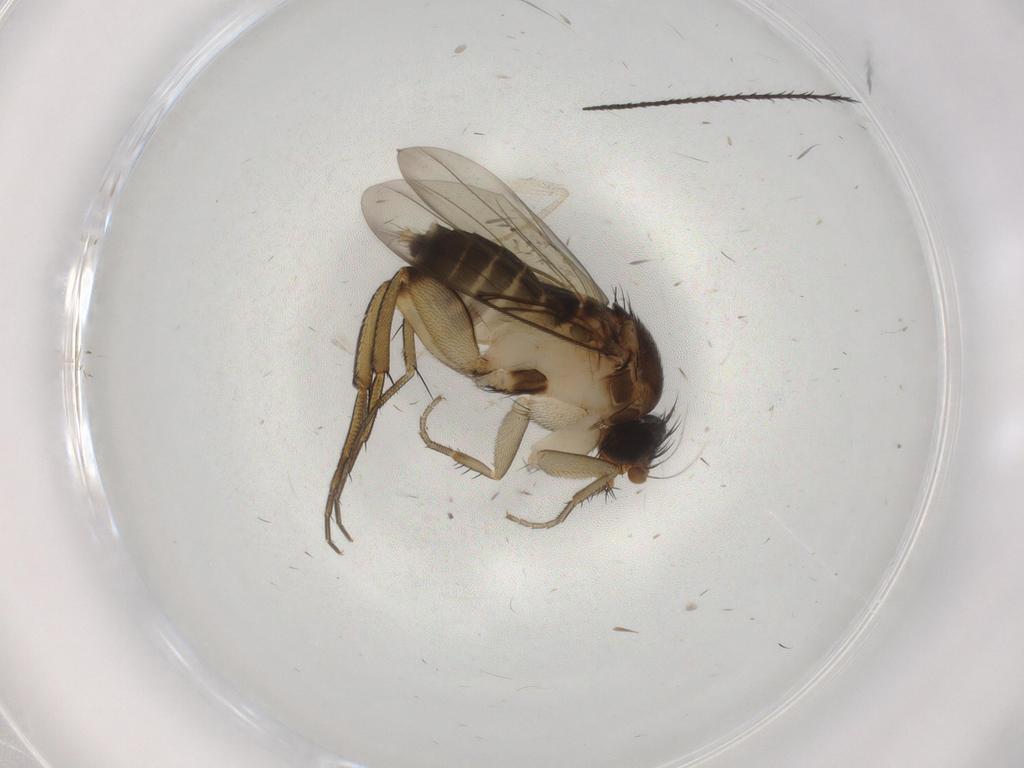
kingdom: Animalia
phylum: Arthropoda
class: Insecta
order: Diptera
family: Phoridae
